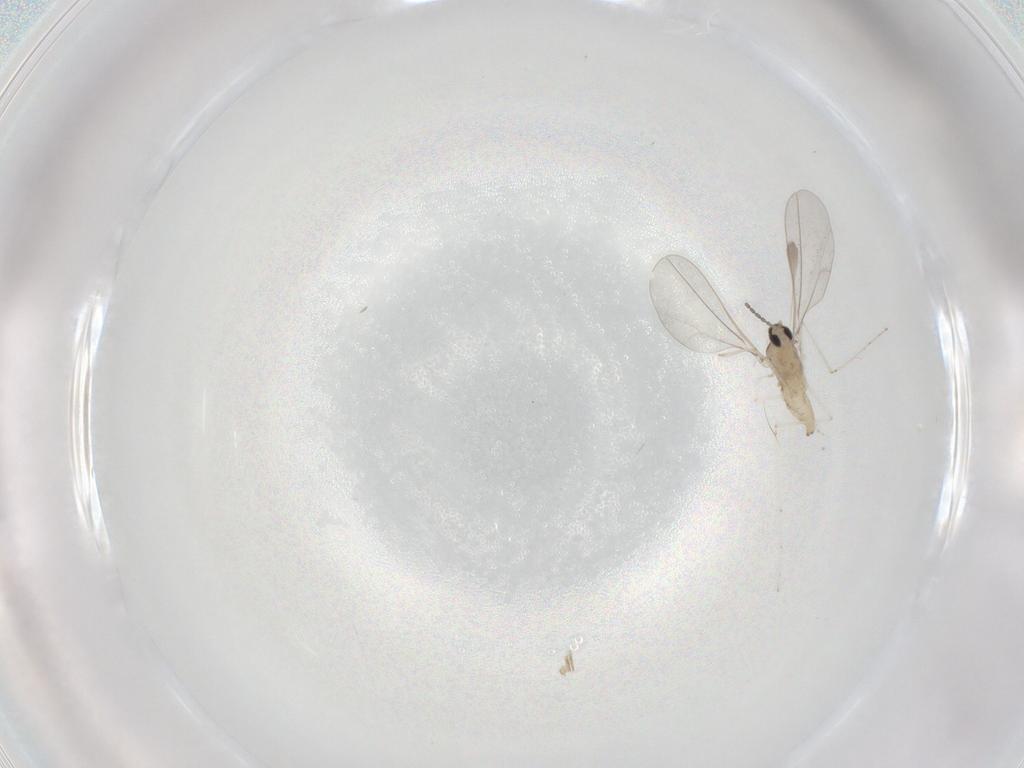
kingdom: Animalia
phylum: Arthropoda
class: Insecta
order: Diptera
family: Cecidomyiidae
